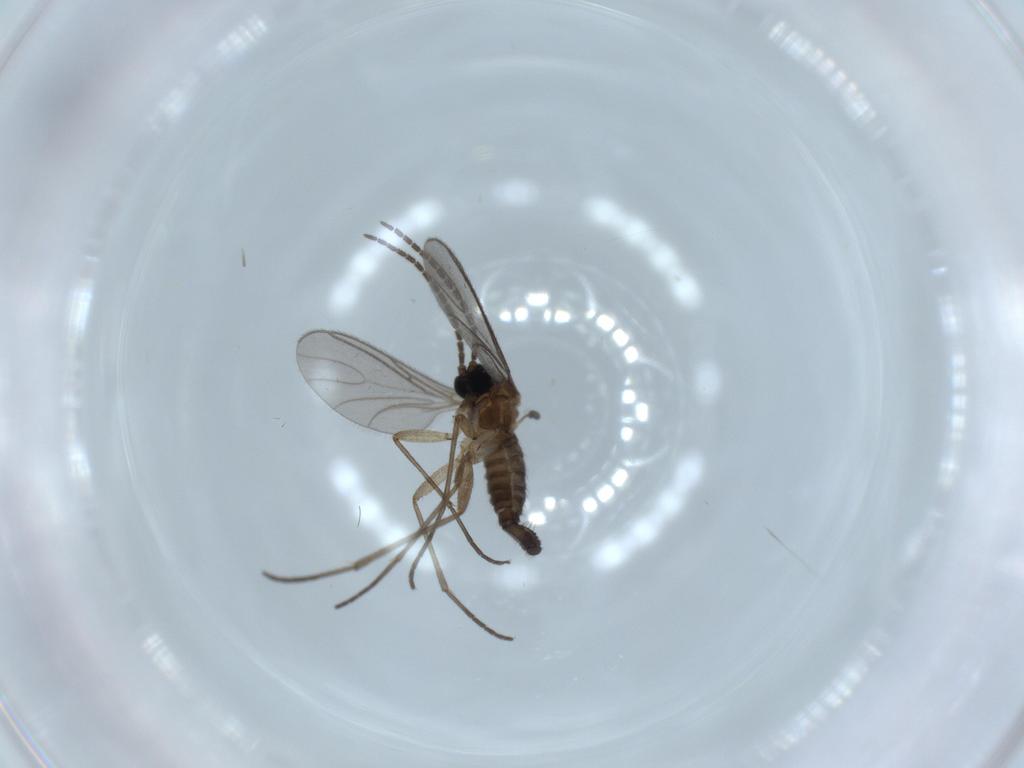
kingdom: Animalia
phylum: Arthropoda
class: Insecta
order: Diptera
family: Sciaridae
